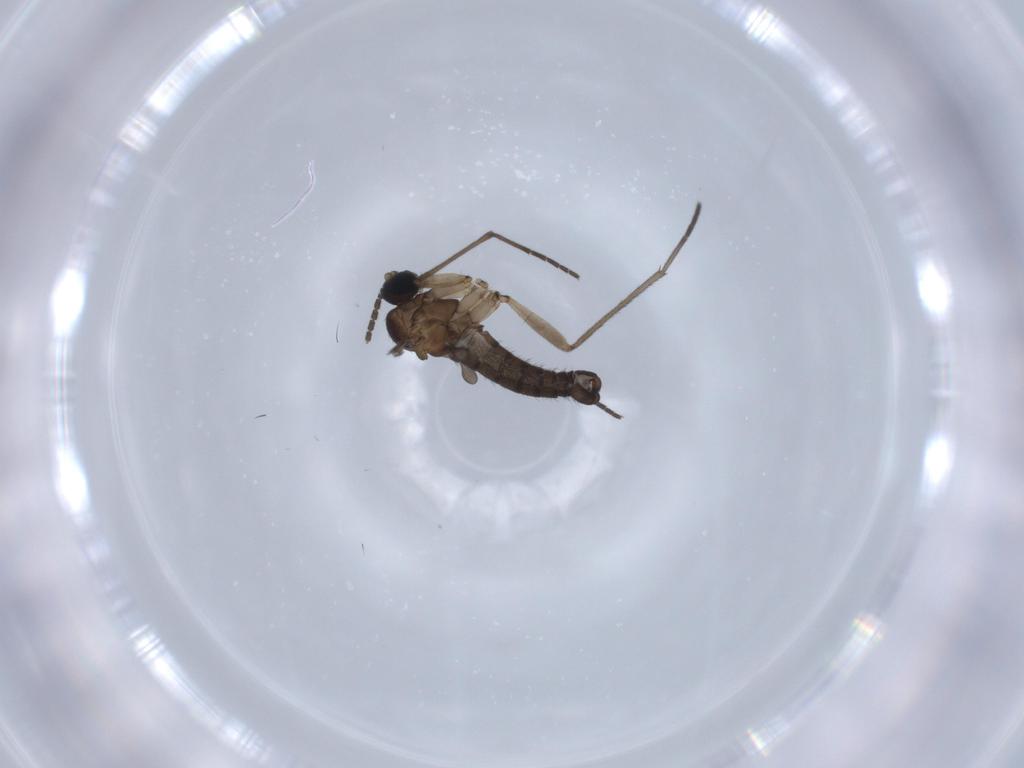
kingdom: Animalia
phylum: Arthropoda
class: Insecta
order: Diptera
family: Sciaridae
